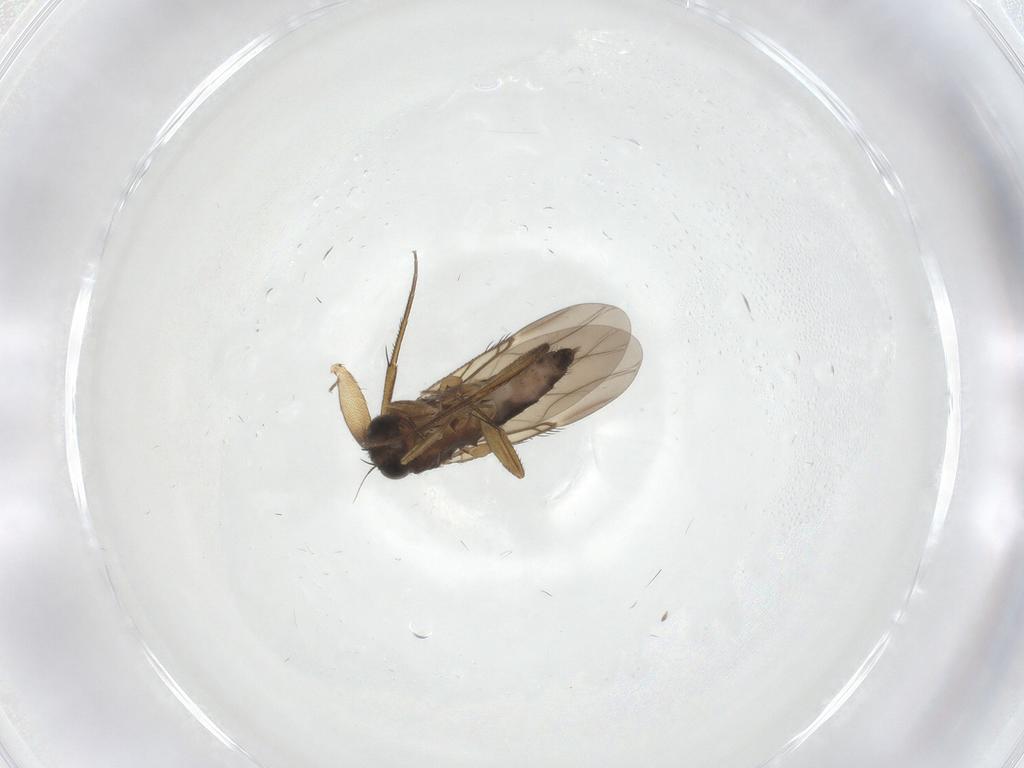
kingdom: Animalia
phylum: Arthropoda
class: Insecta
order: Diptera
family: Chironomidae
